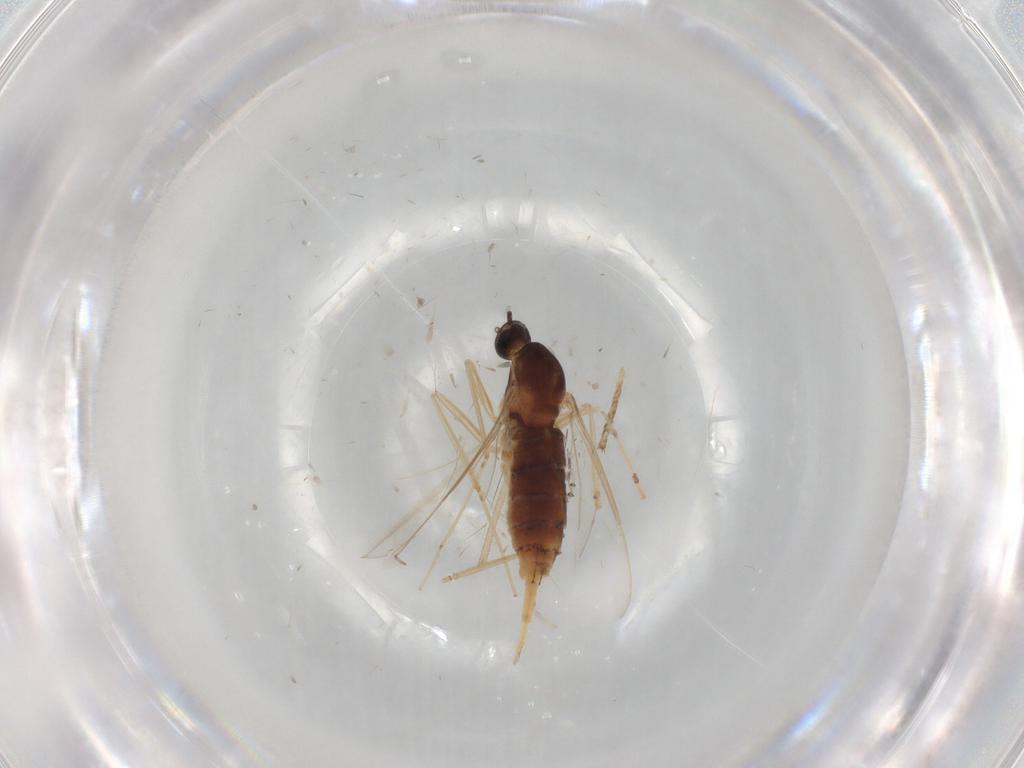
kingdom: Animalia
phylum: Arthropoda
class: Insecta
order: Diptera
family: Cecidomyiidae
